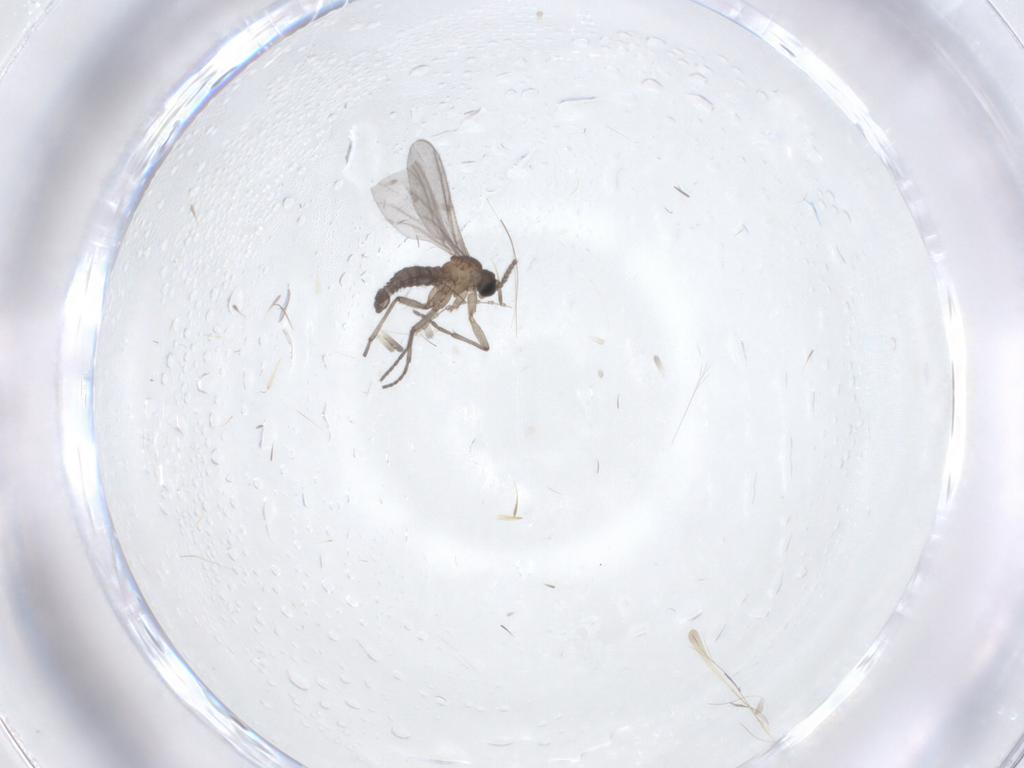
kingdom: Animalia
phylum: Arthropoda
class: Insecta
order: Diptera
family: Sciaridae
